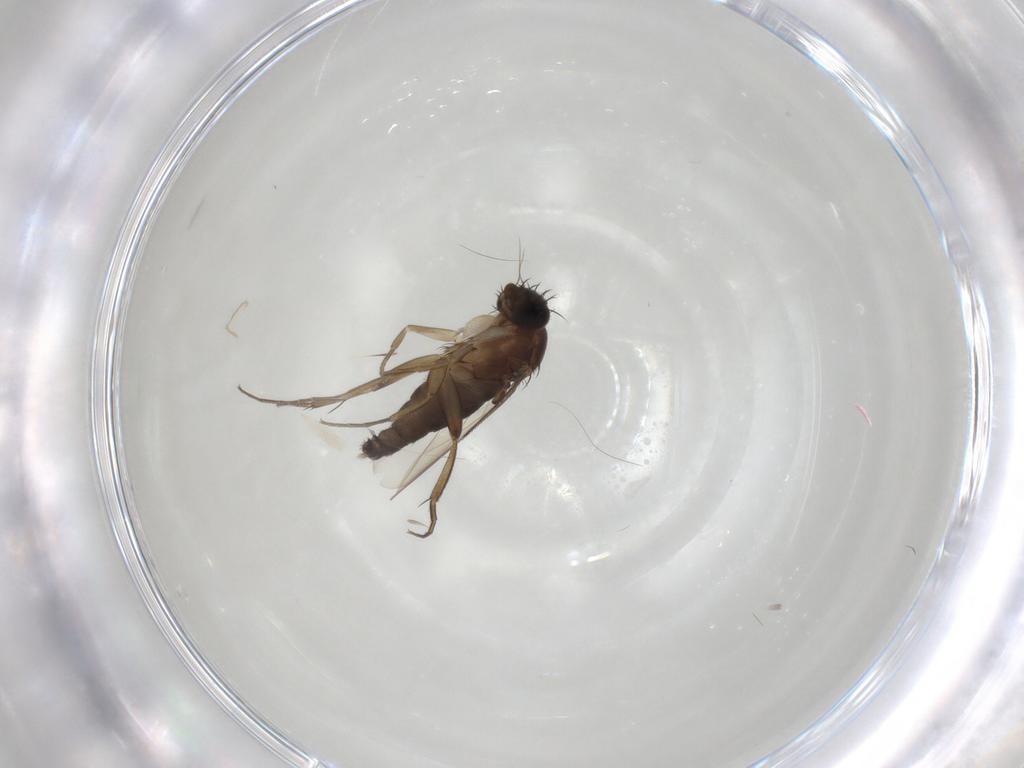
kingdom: Animalia
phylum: Arthropoda
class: Insecta
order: Diptera
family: Phoridae
